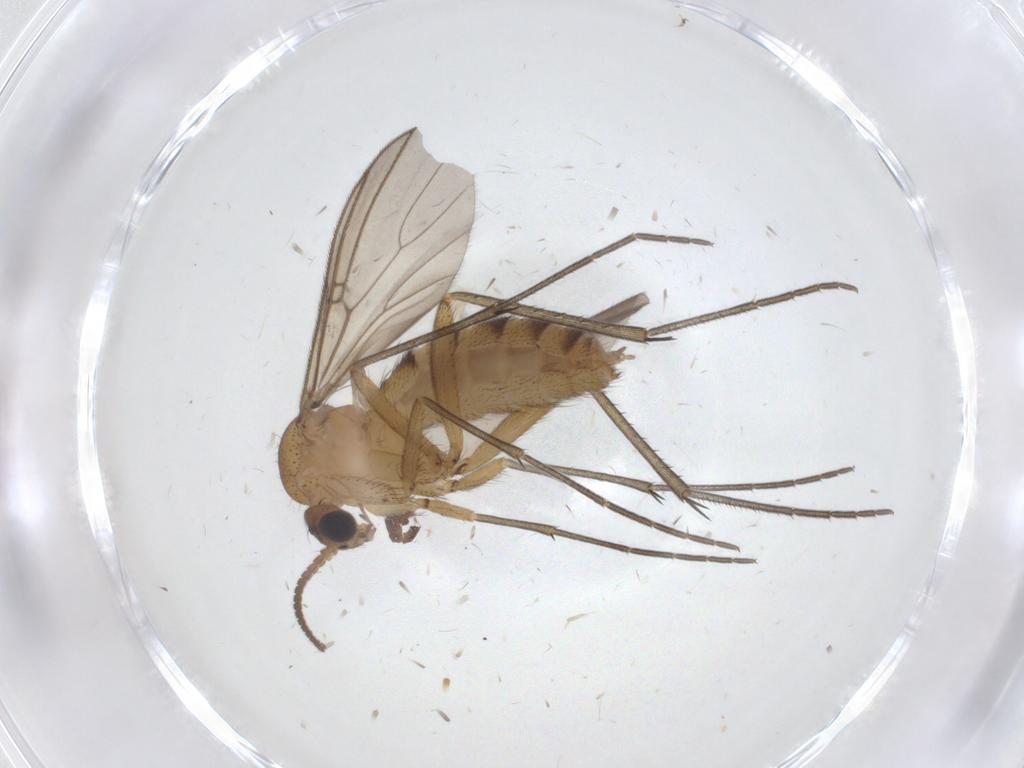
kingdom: Animalia
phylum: Arthropoda
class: Insecta
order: Diptera
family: Mycetophilidae
